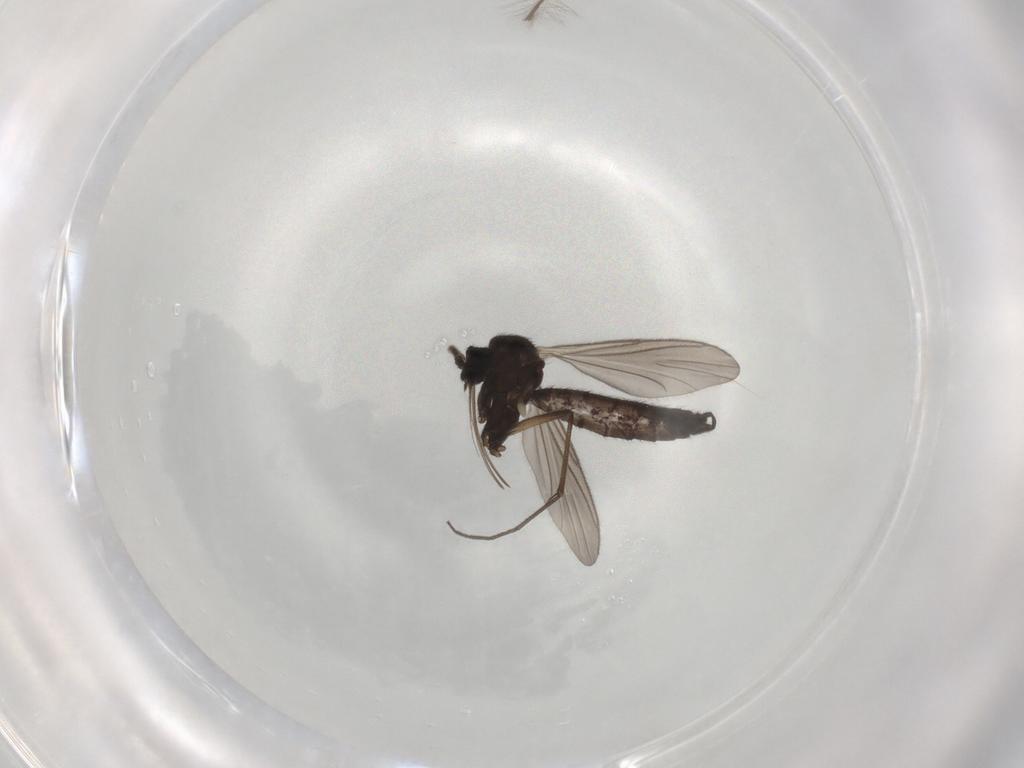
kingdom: Animalia
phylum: Arthropoda
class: Insecta
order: Diptera
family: Keroplatidae
